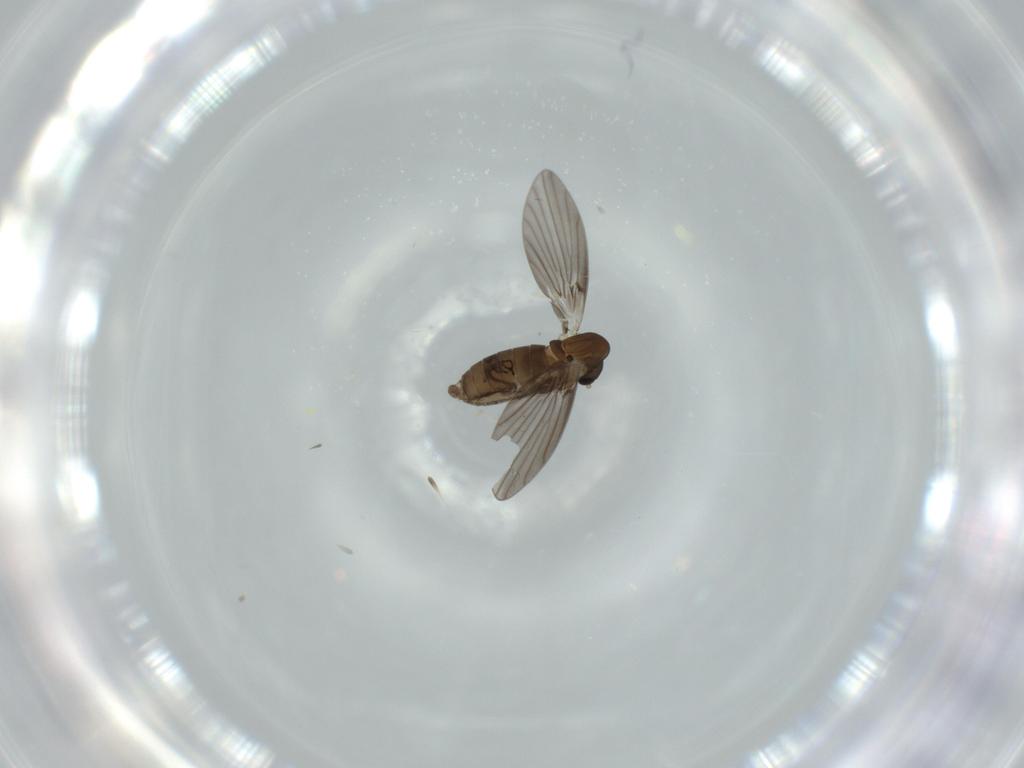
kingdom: Animalia
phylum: Arthropoda
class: Insecta
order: Diptera
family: Psychodidae
